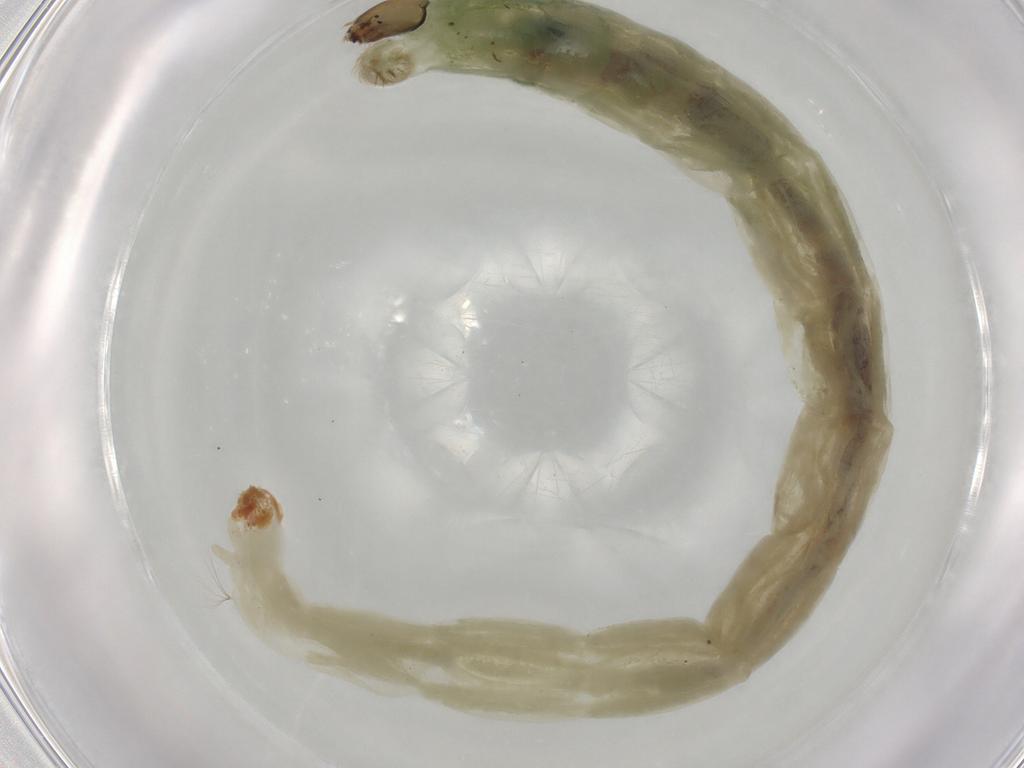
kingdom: Animalia
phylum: Arthropoda
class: Insecta
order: Diptera
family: Chironomidae
